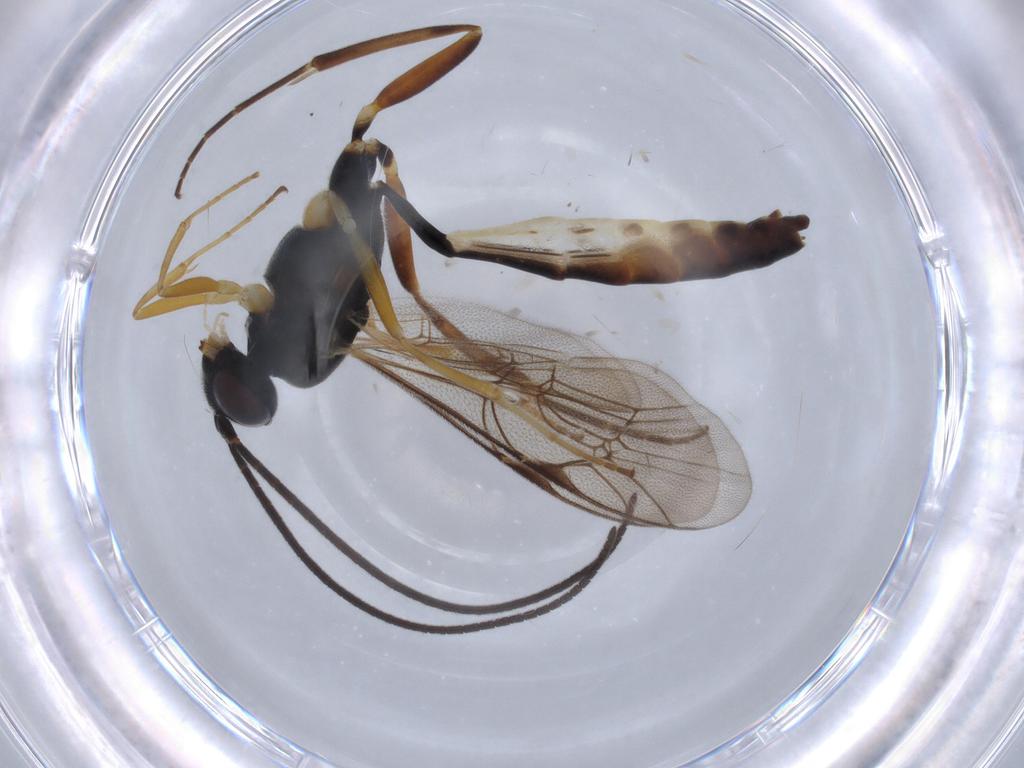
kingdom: Animalia
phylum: Arthropoda
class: Insecta
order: Hymenoptera
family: Ichneumonidae
